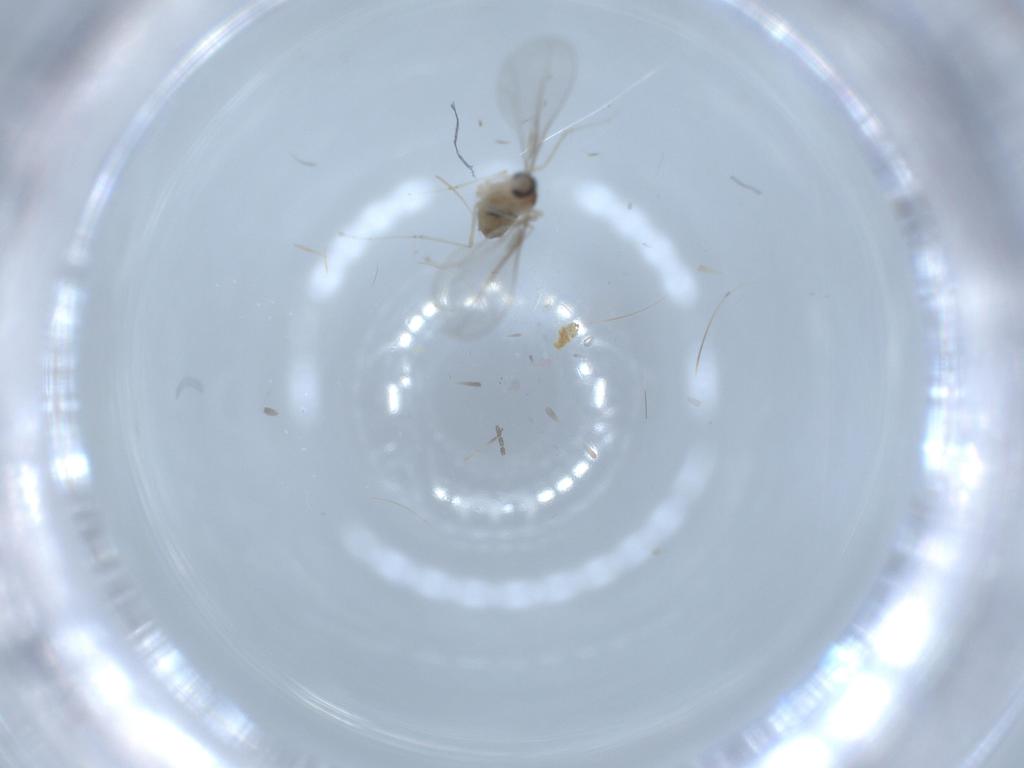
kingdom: Animalia
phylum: Arthropoda
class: Insecta
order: Diptera
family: Cecidomyiidae
